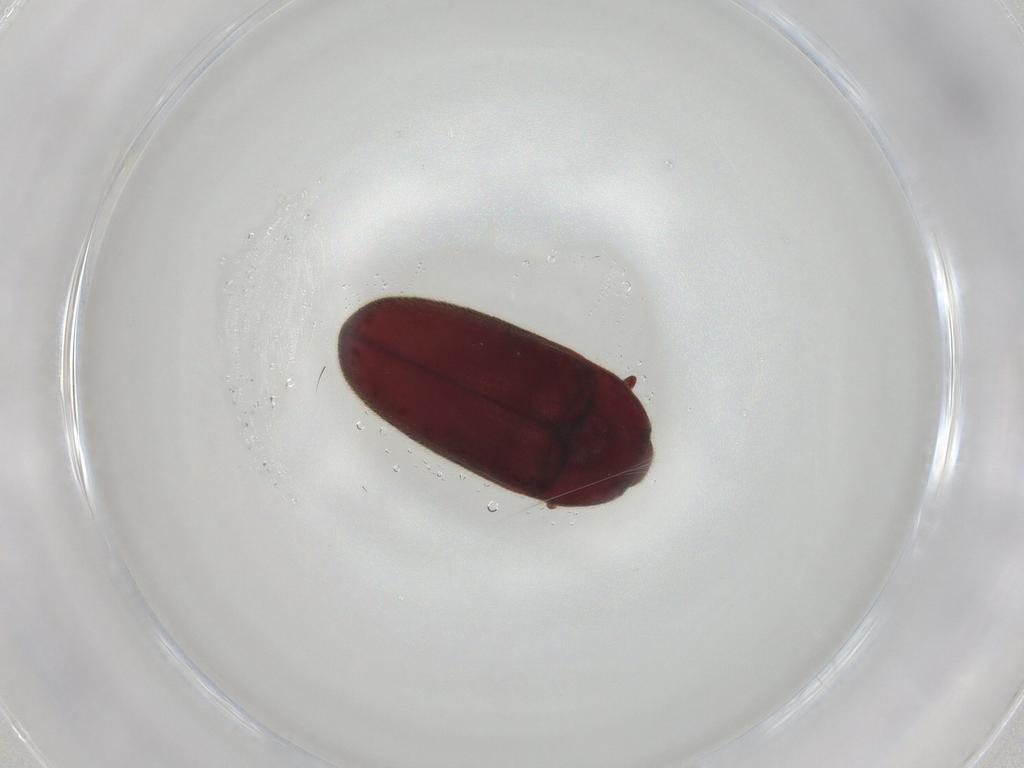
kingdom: Animalia
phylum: Arthropoda
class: Insecta
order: Coleoptera
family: Throscidae
